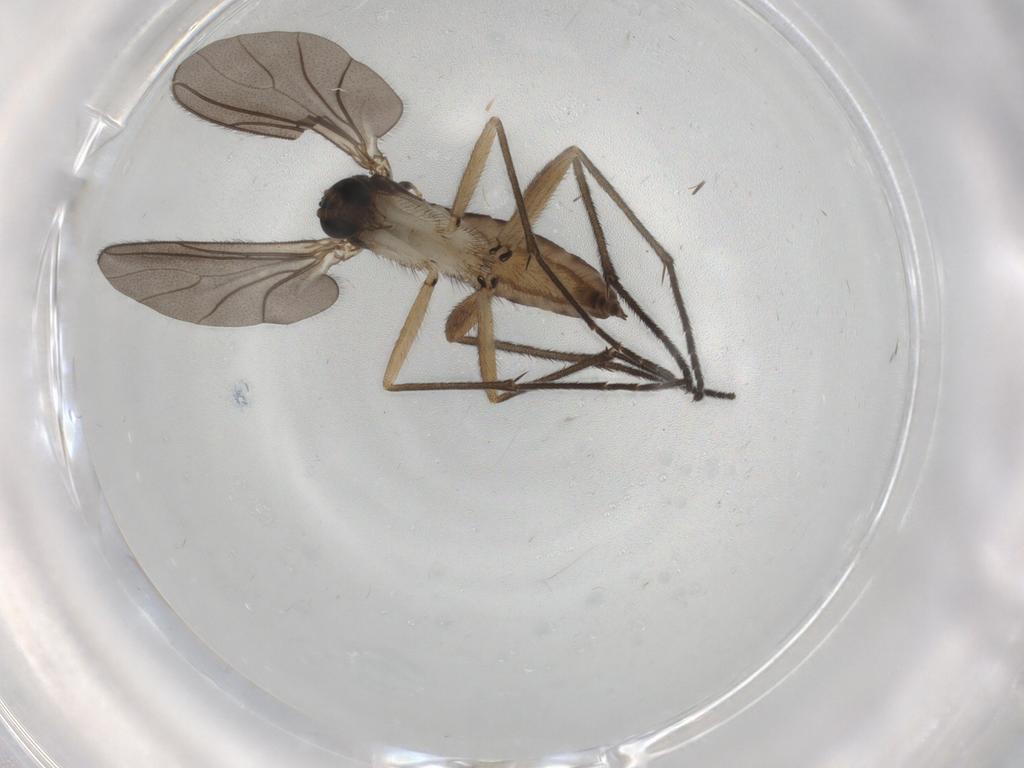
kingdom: Animalia
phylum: Arthropoda
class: Insecta
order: Diptera
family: Sciaridae
